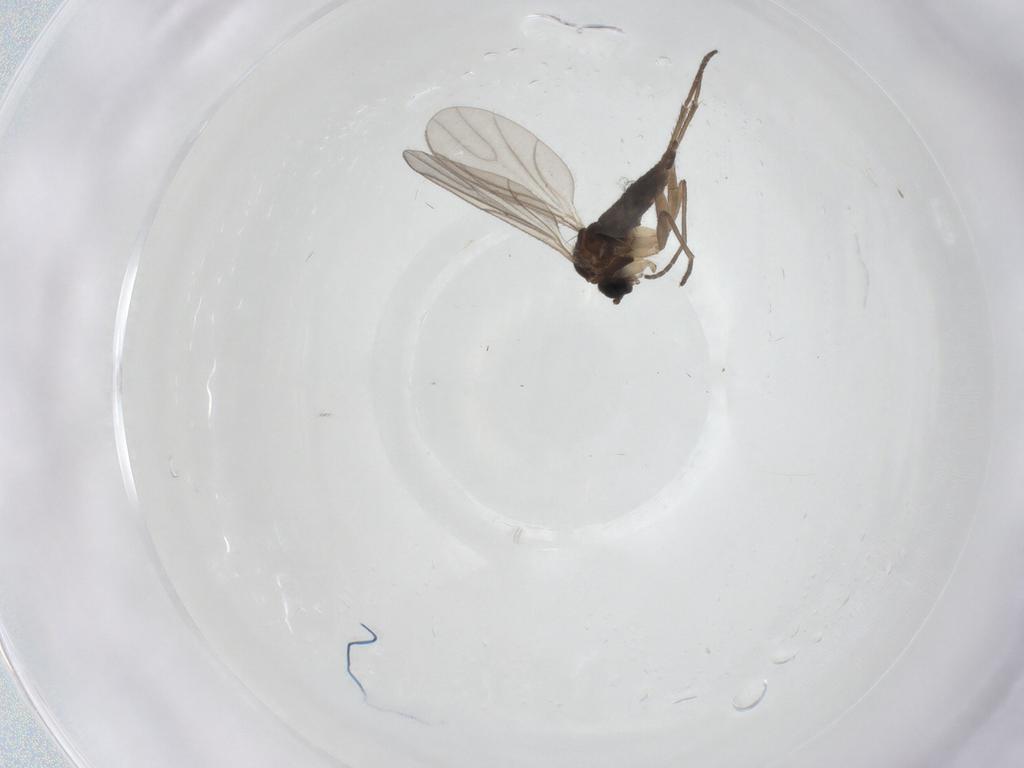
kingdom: Animalia
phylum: Arthropoda
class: Insecta
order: Diptera
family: Sciaridae
